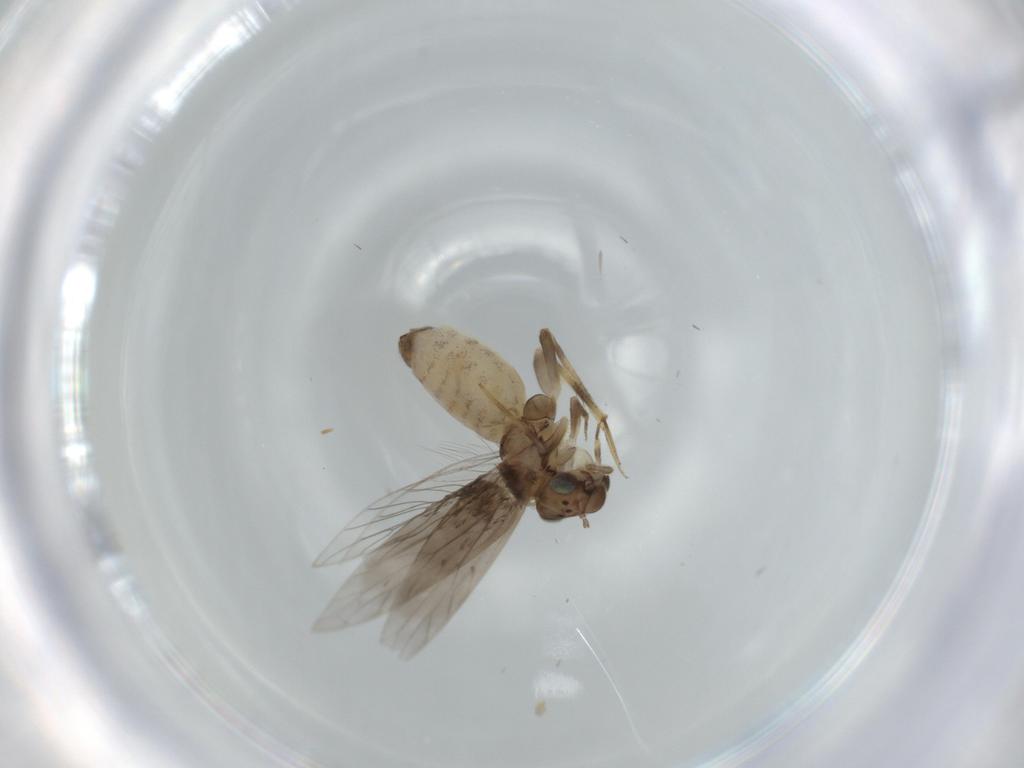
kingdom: Animalia
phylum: Arthropoda
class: Insecta
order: Psocodea
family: Lepidopsocidae
